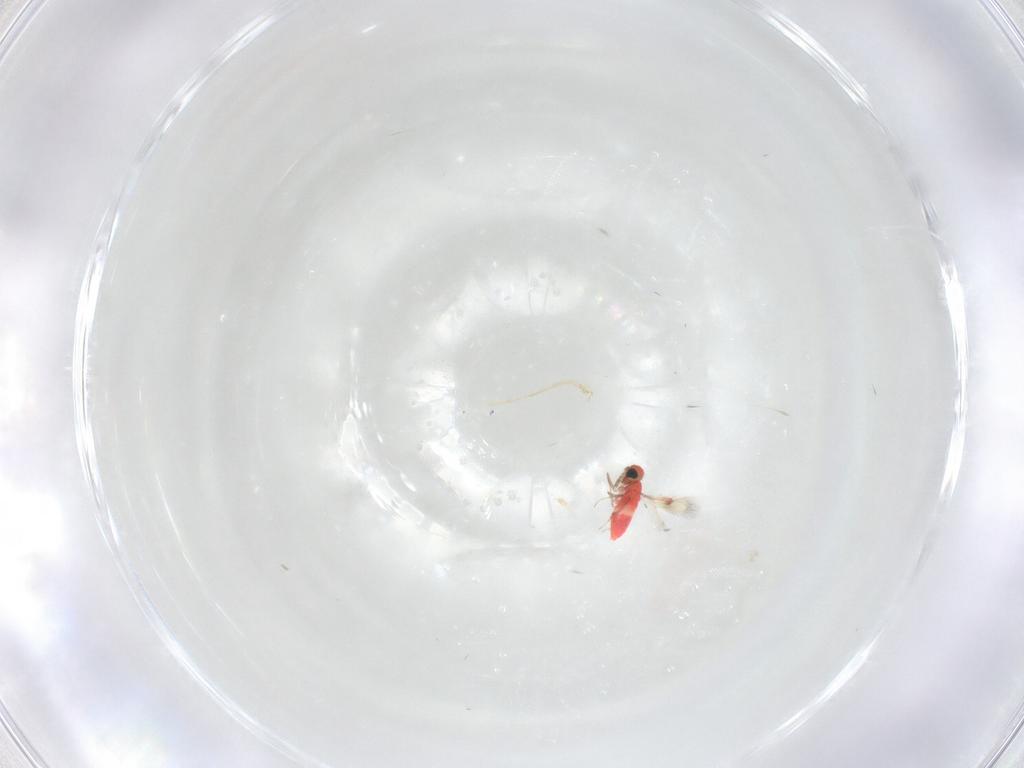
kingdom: Animalia
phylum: Arthropoda
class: Insecta
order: Hymenoptera
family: Trichogrammatidae
